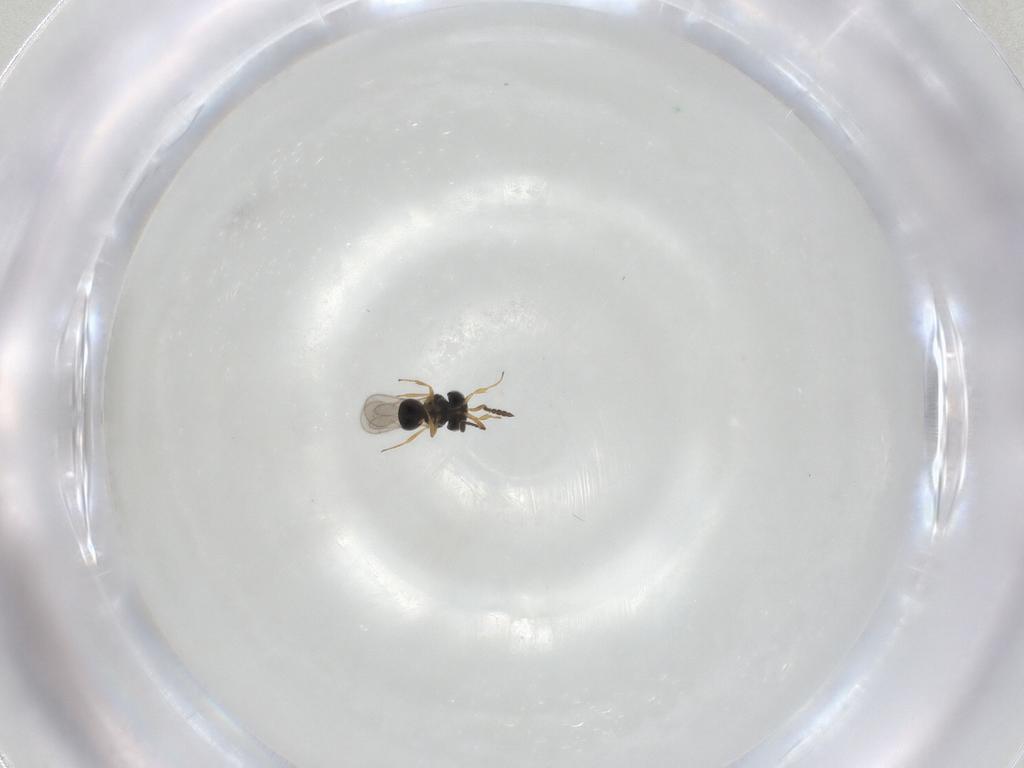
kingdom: Animalia
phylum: Arthropoda
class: Insecta
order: Hymenoptera
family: Scelionidae
